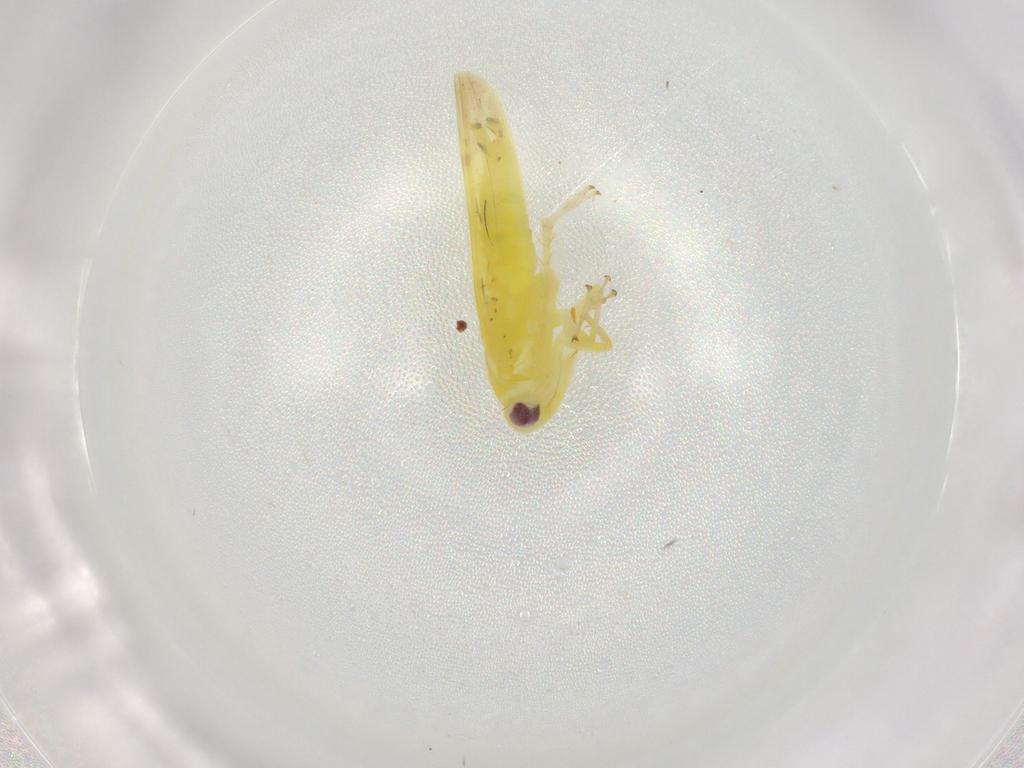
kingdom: Animalia
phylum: Arthropoda
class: Insecta
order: Hemiptera
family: Cicadellidae
